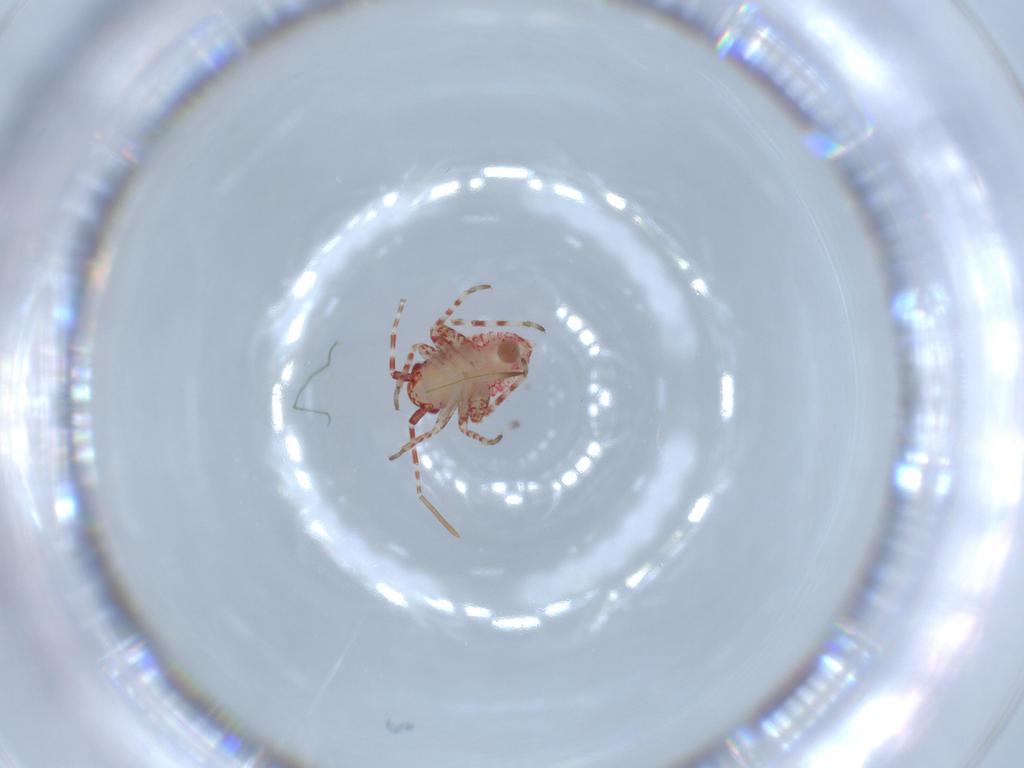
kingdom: Animalia
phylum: Arthropoda
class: Insecta
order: Hemiptera
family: Miridae
